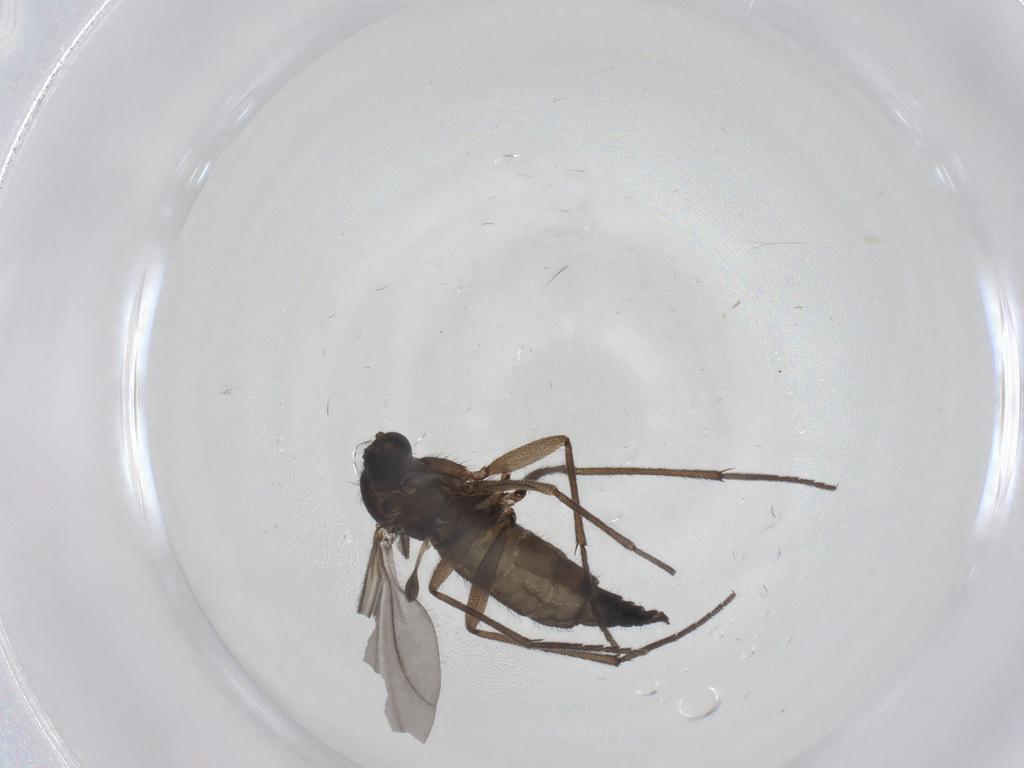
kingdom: Animalia
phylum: Arthropoda
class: Insecta
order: Diptera
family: Sciaridae
